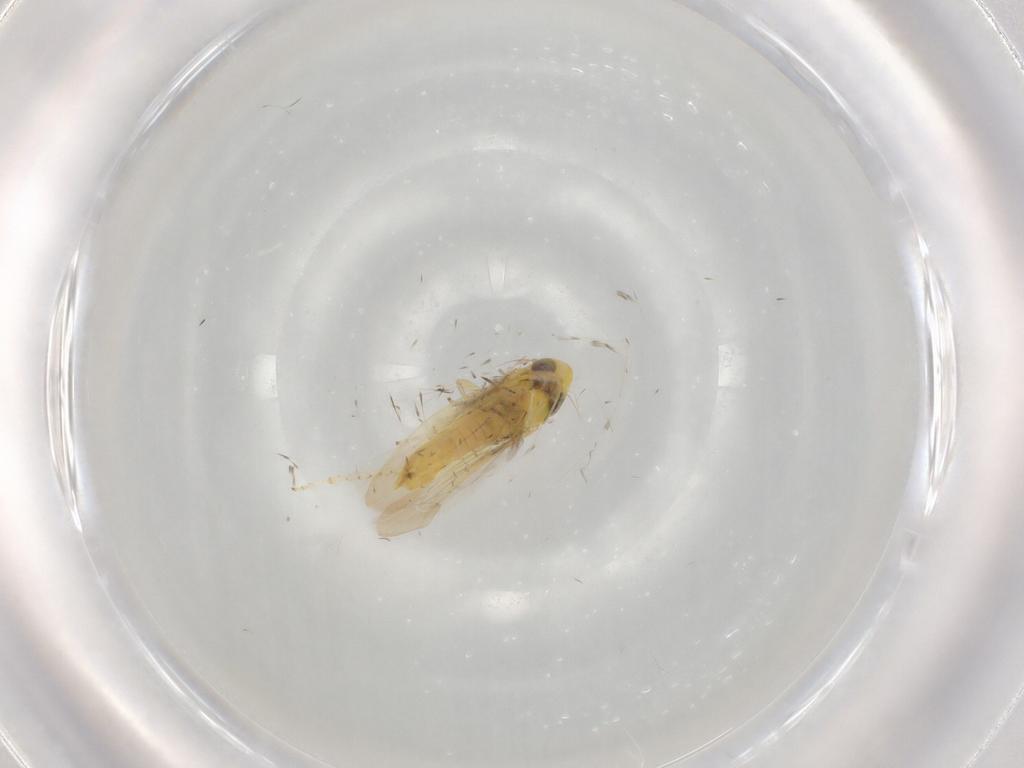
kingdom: Animalia
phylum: Arthropoda
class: Insecta
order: Hemiptera
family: Cicadellidae
